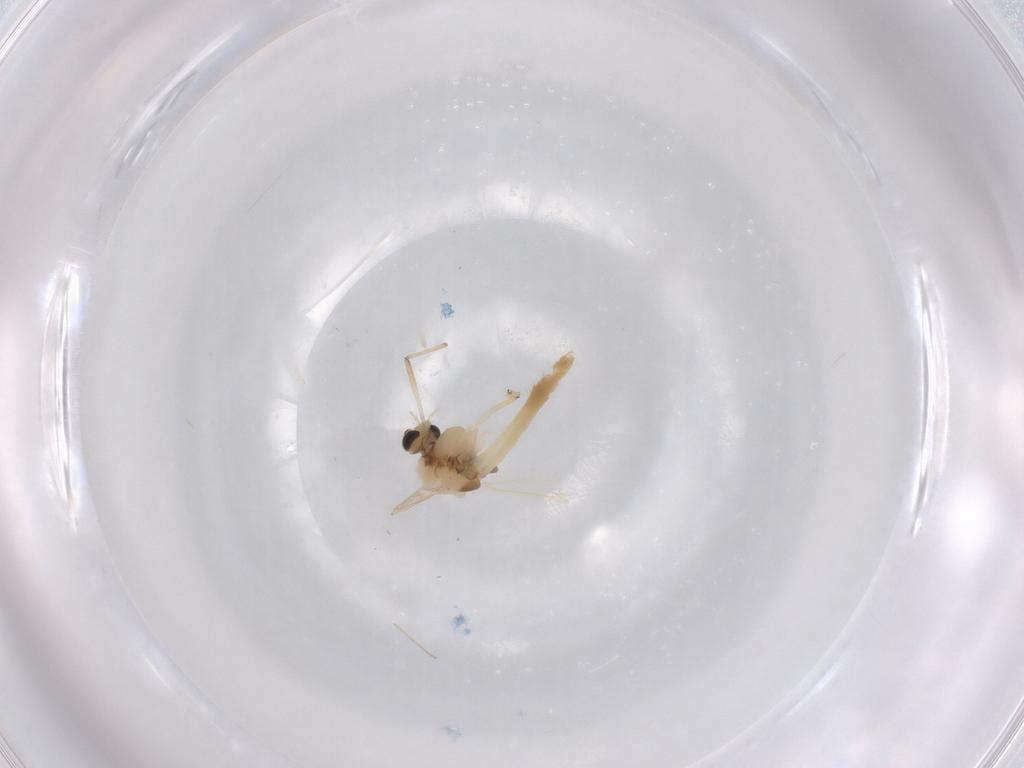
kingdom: Animalia
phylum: Arthropoda
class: Insecta
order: Diptera
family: Chironomidae
